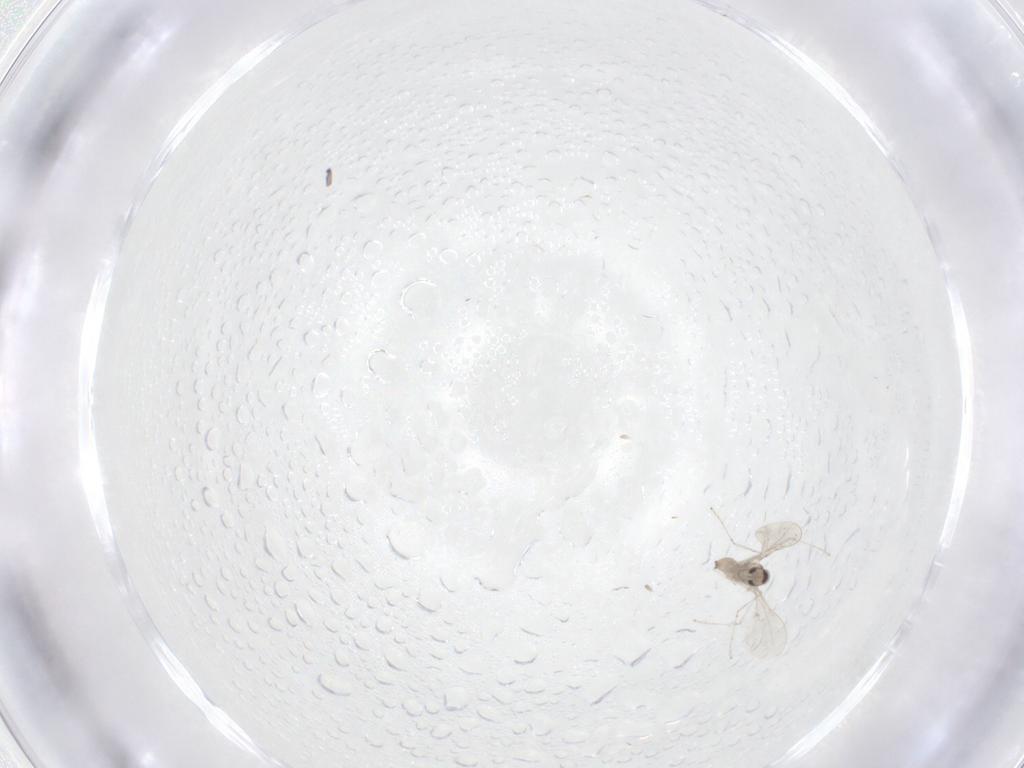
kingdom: Animalia
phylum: Arthropoda
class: Insecta
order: Diptera
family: Cecidomyiidae
